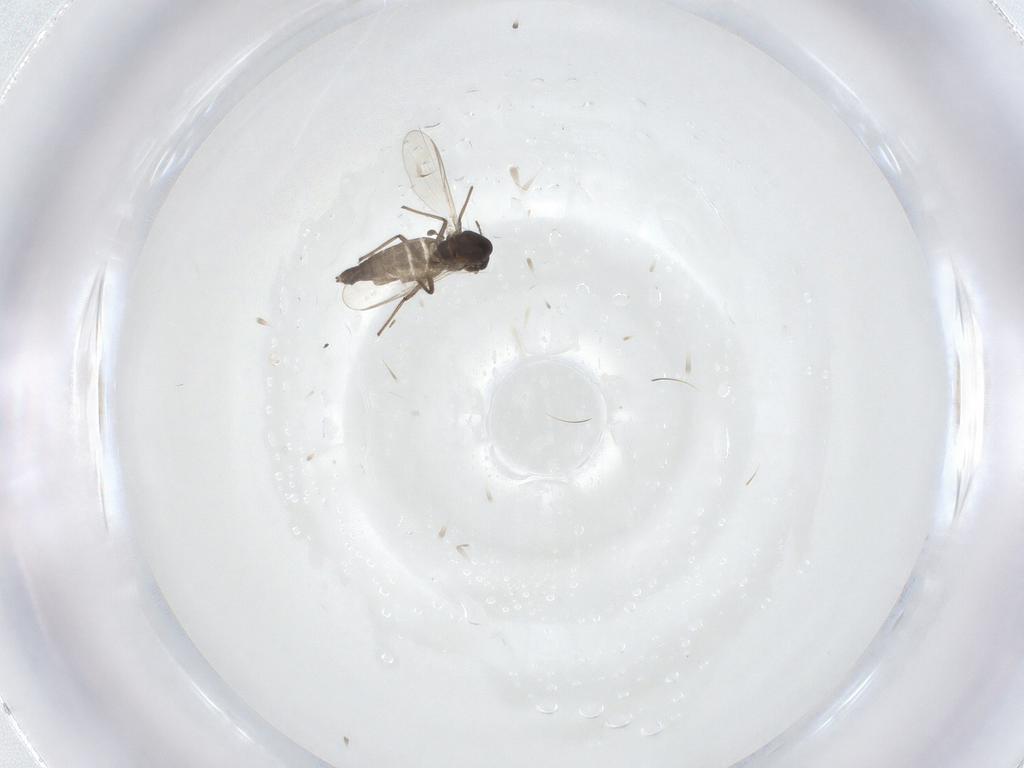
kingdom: Animalia
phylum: Arthropoda
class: Insecta
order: Diptera
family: Chironomidae
